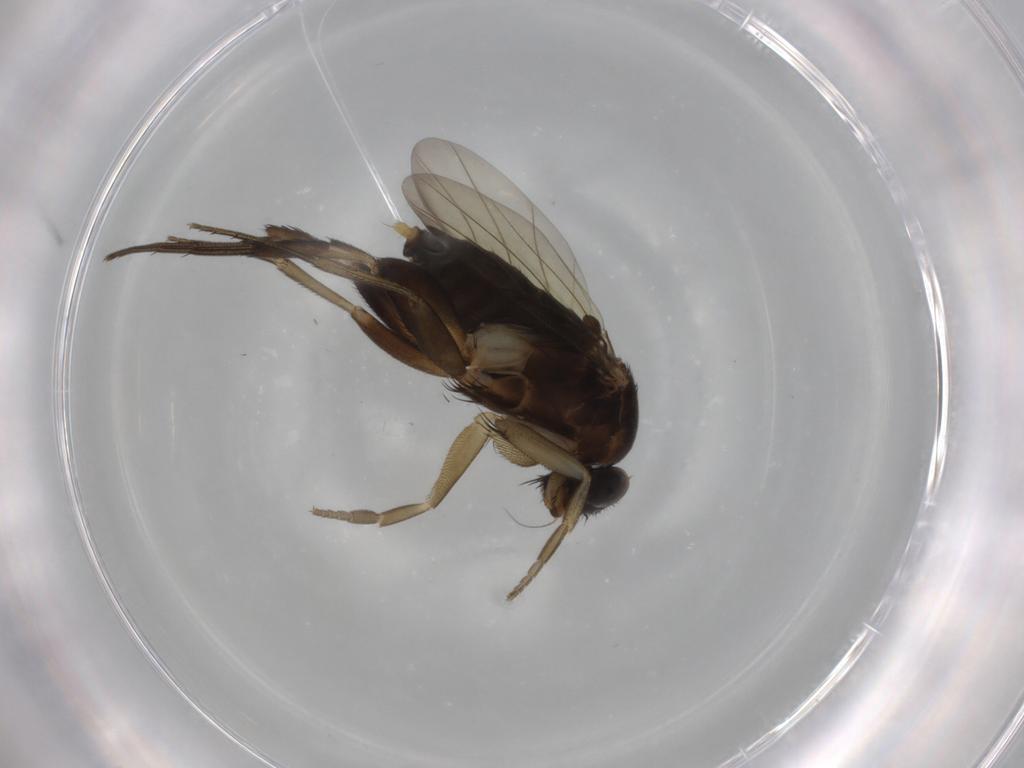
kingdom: Animalia
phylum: Arthropoda
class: Insecta
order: Diptera
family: Phoridae
